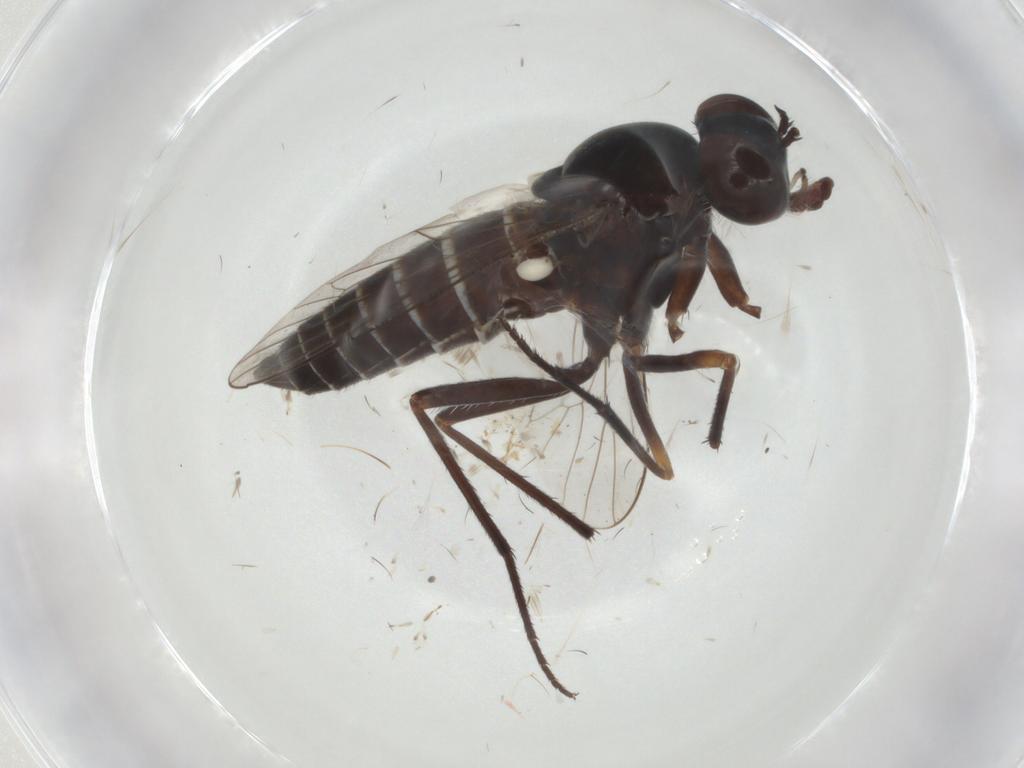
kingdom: Animalia
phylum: Arthropoda
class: Insecta
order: Diptera
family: Cecidomyiidae
